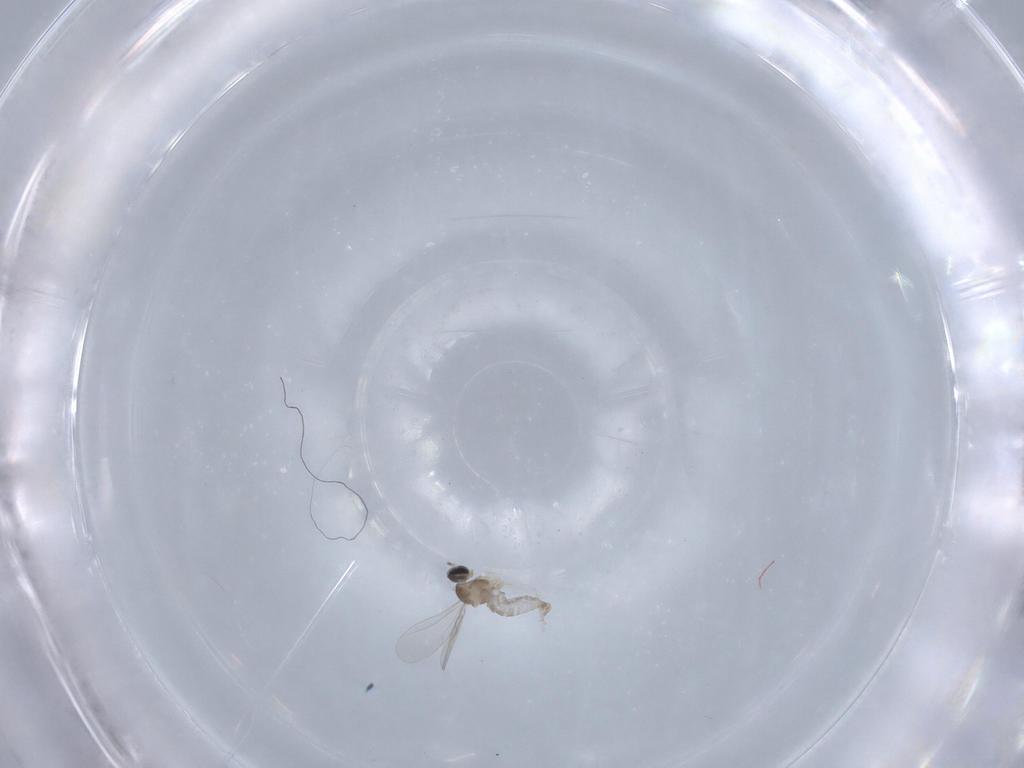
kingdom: Animalia
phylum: Arthropoda
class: Insecta
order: Diptera
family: Cecidomyiidae
